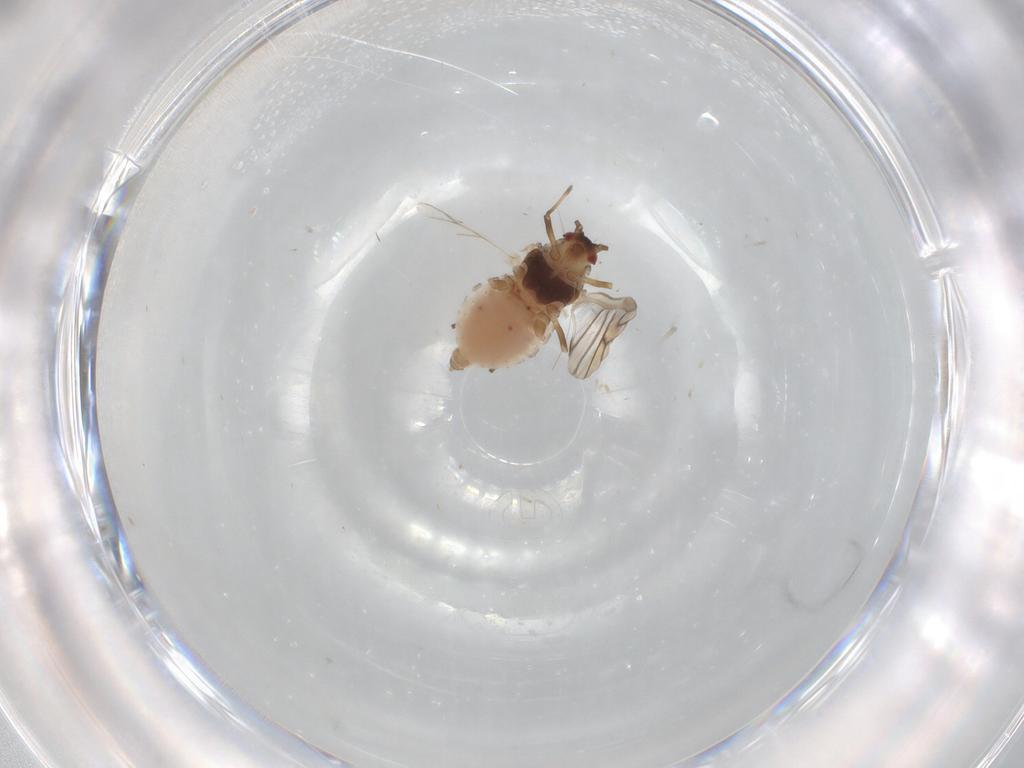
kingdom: Animalia
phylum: Arthropoda
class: Insecta
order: Hemiptera
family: Aphididae
